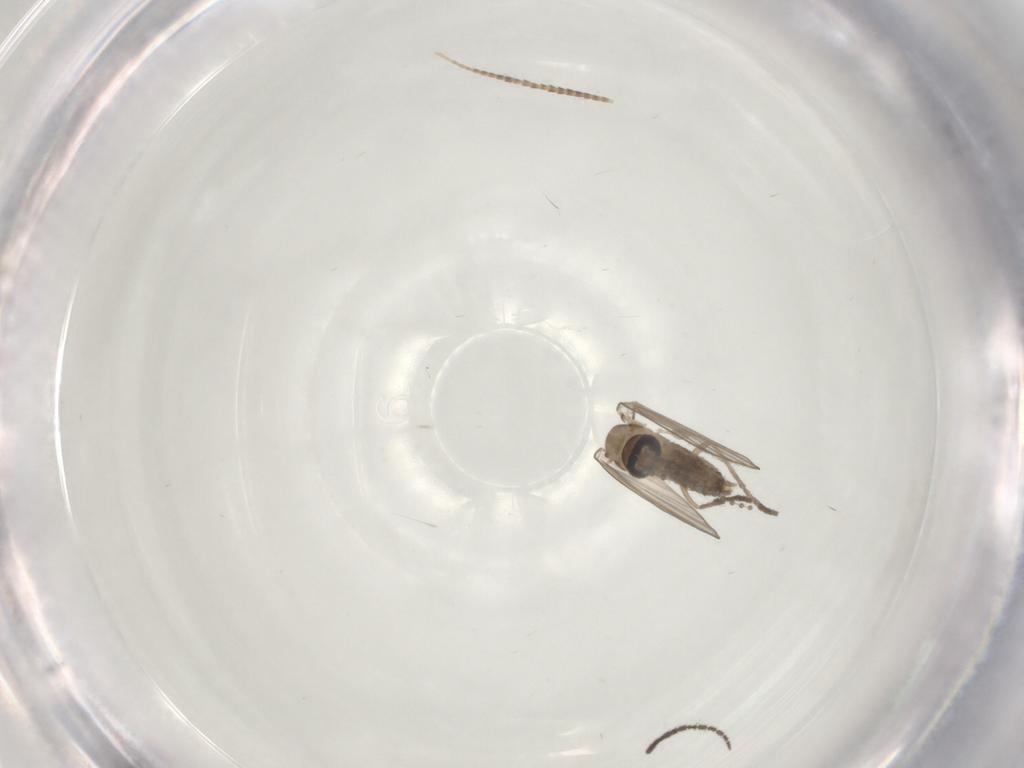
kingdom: Animalia
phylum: Arthropoda
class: Insecta
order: Diptera
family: Psychodidae
